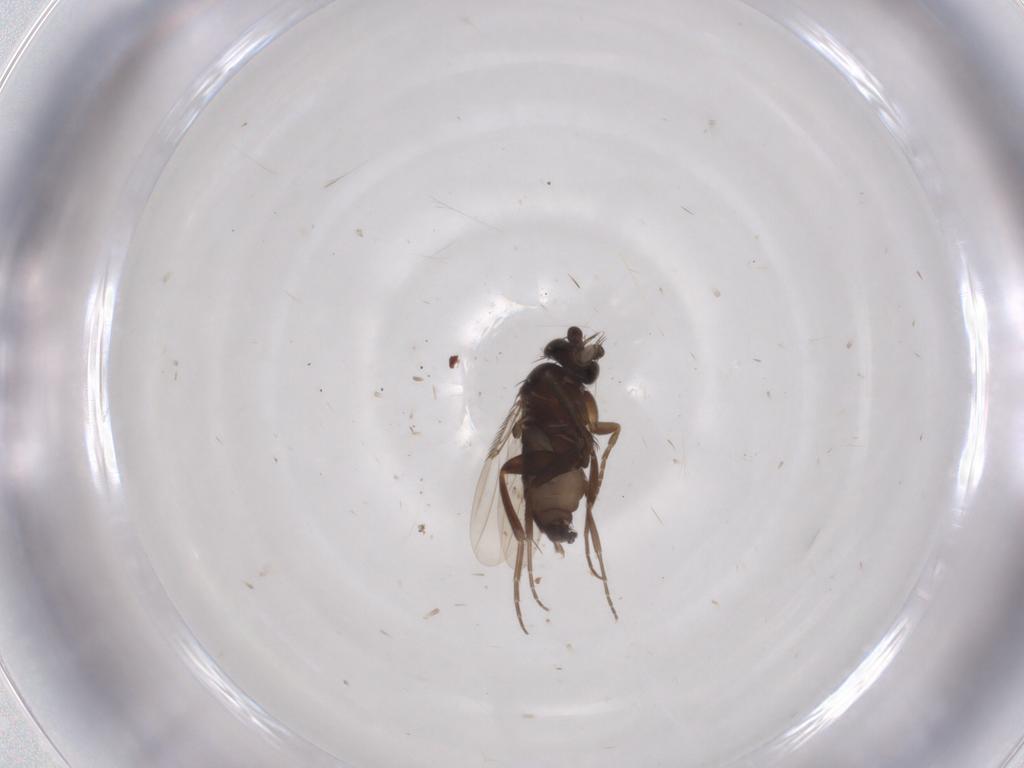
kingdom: Animalia
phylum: Arthropoda
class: Insecta
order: Diptera
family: Phoridae
